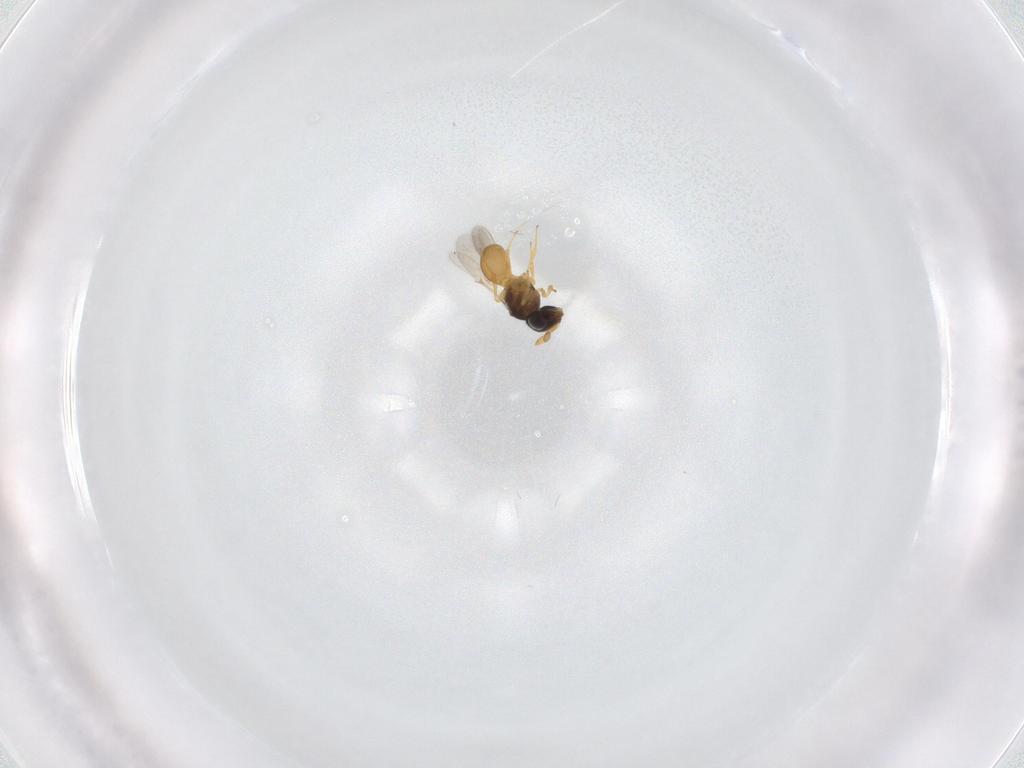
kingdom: Animalia
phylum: Arthropoda
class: Insecta
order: Hymenoptera
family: Scelionidae
